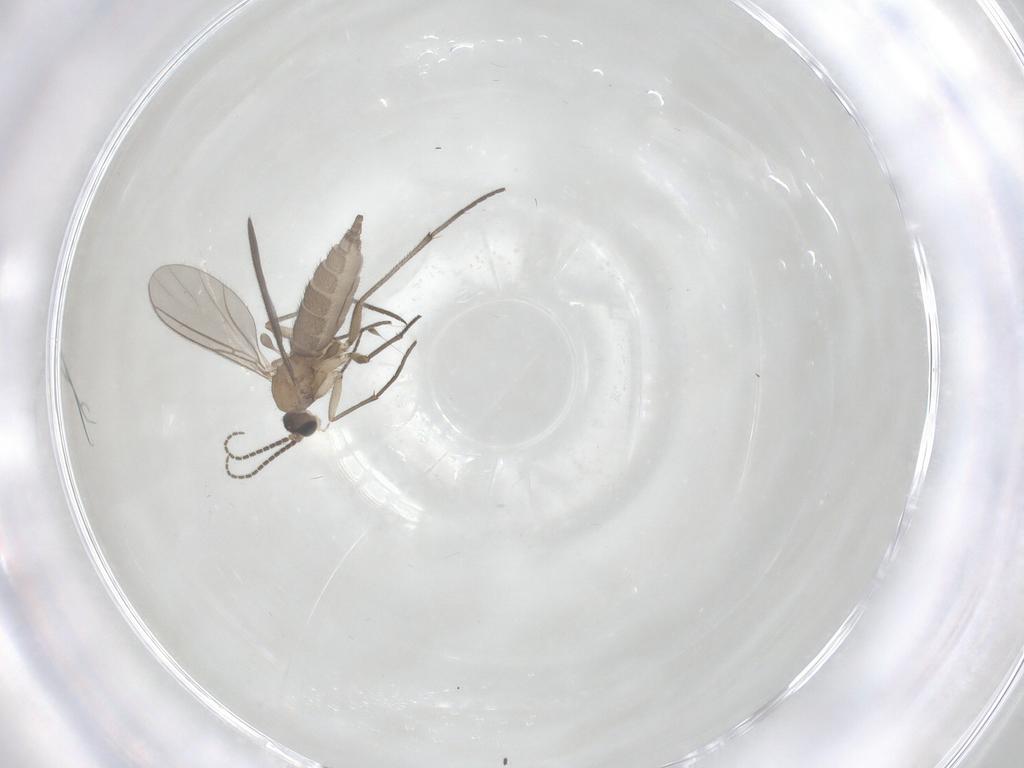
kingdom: Animalia
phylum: Arthropoda
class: Insecta
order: Diptera
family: Sciaridae
